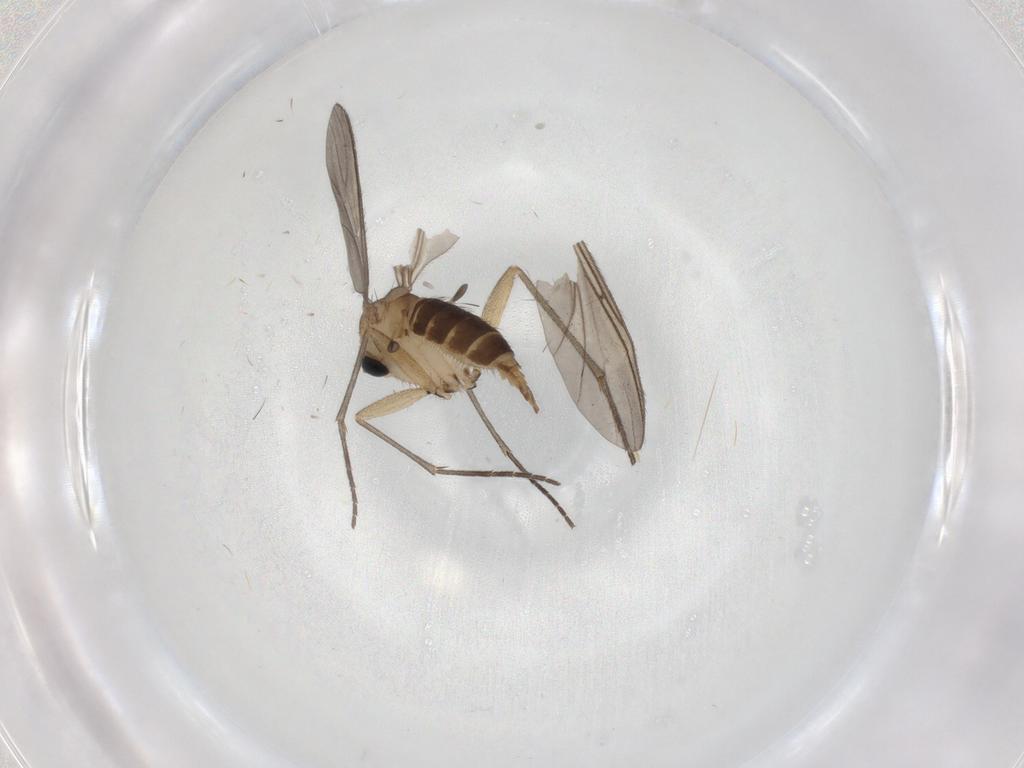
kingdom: Animalia
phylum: Arthropoda
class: Insecta
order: Diptera
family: Sciaridae
